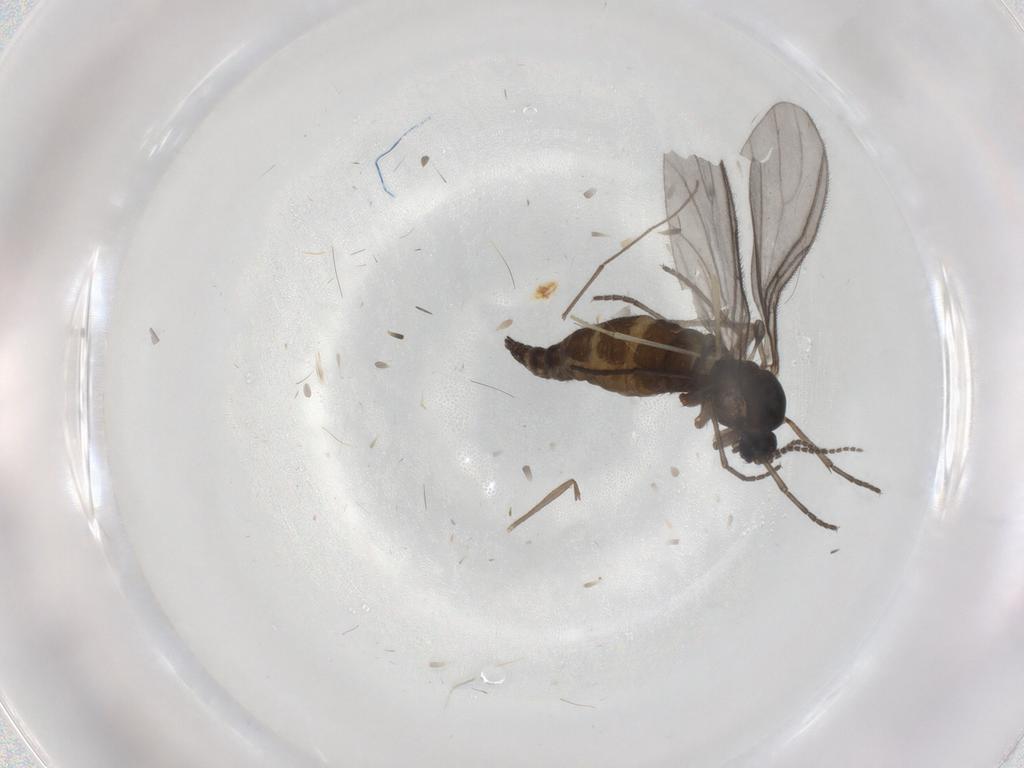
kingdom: Animalia
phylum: Arthropoda
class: Insecta
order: Diptera
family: Sciaridae
